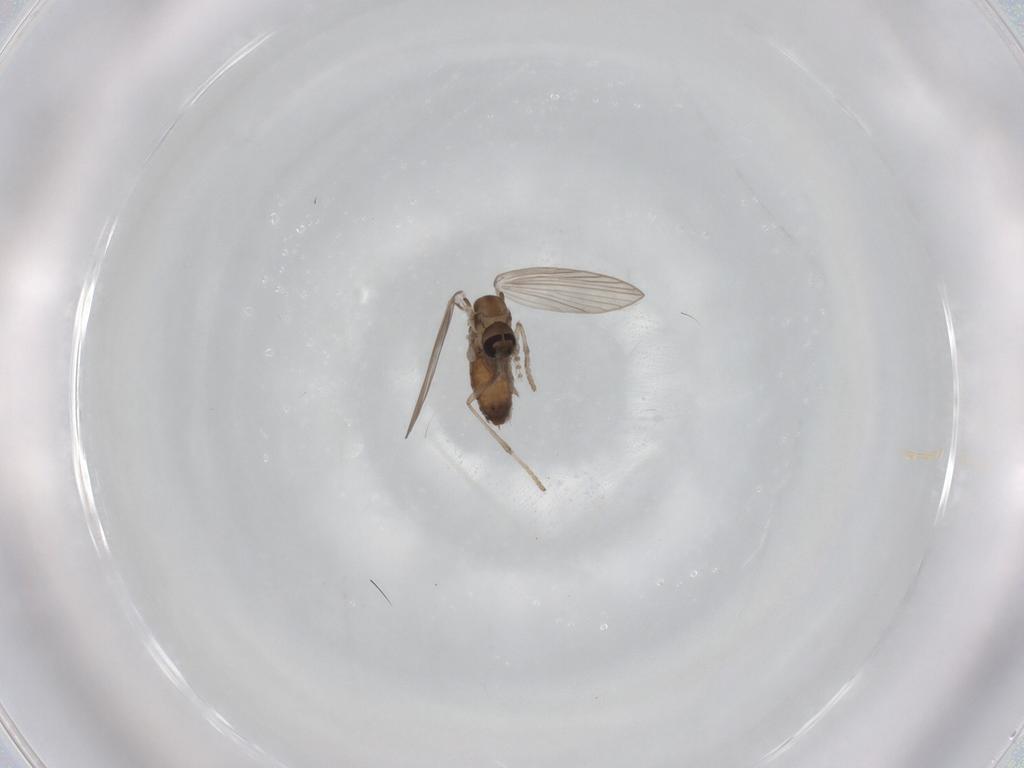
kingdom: Animalia
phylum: Arthropoda
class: Insecta
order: Diptera
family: Psychodidae
